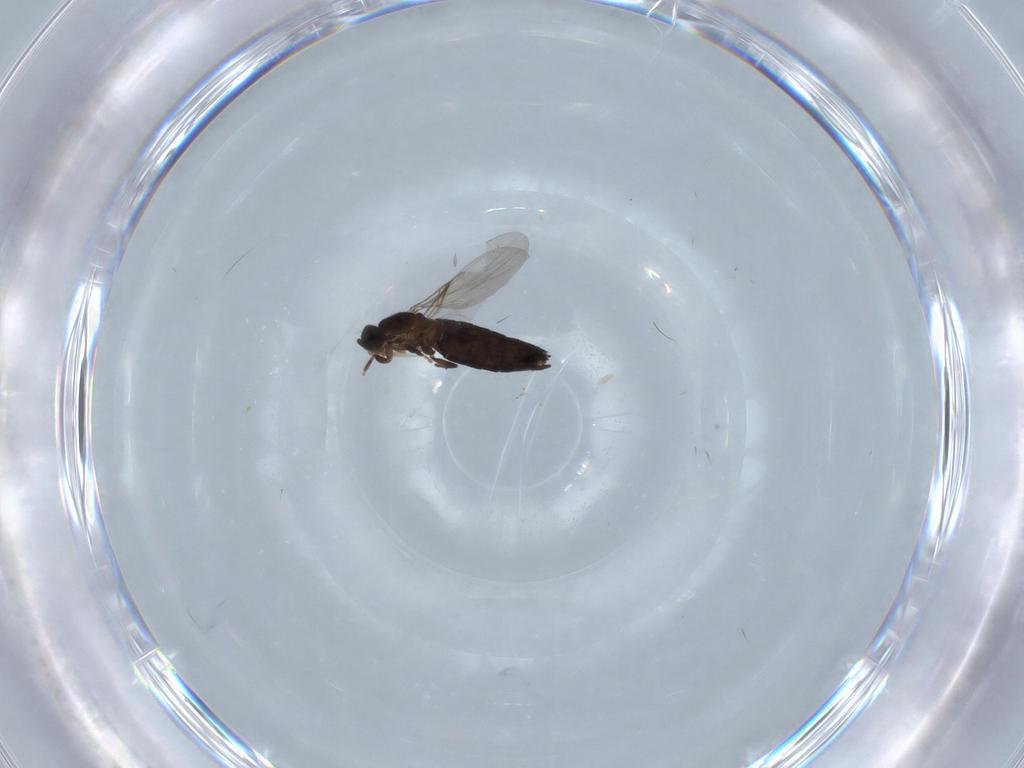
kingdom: Animalia
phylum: Arthropoda
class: Insecta
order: Diptera
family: Scatopsidae
